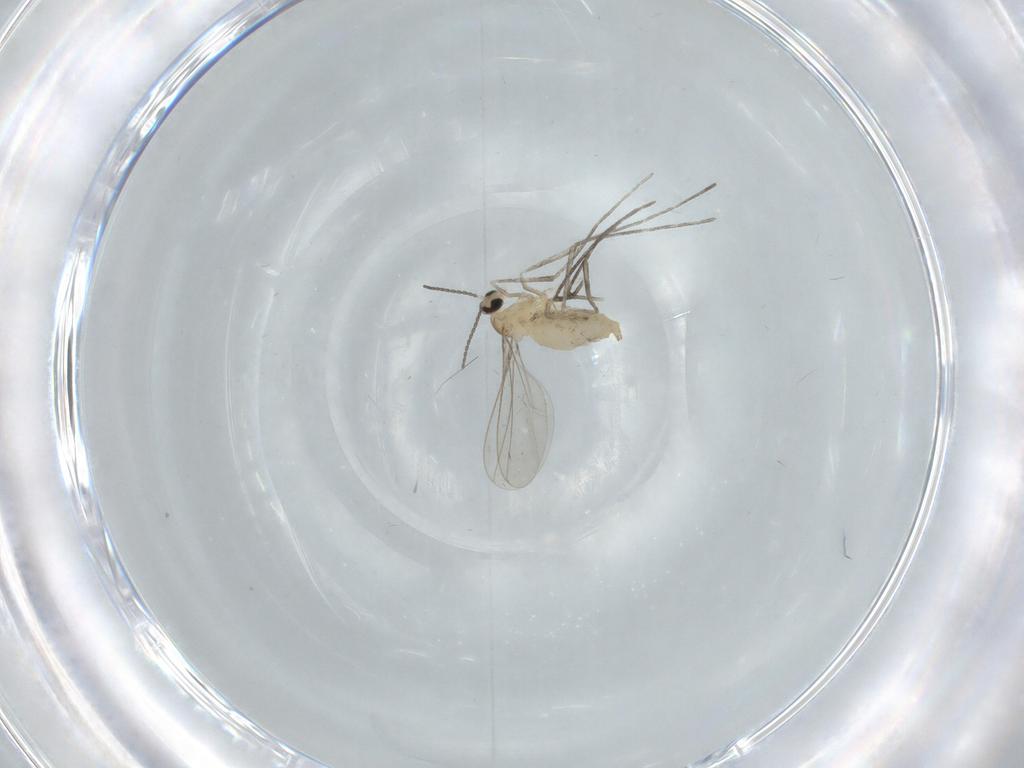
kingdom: Animalia
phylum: Arthropoda
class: Insecta
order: Diptera
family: Cecidomyiidae
